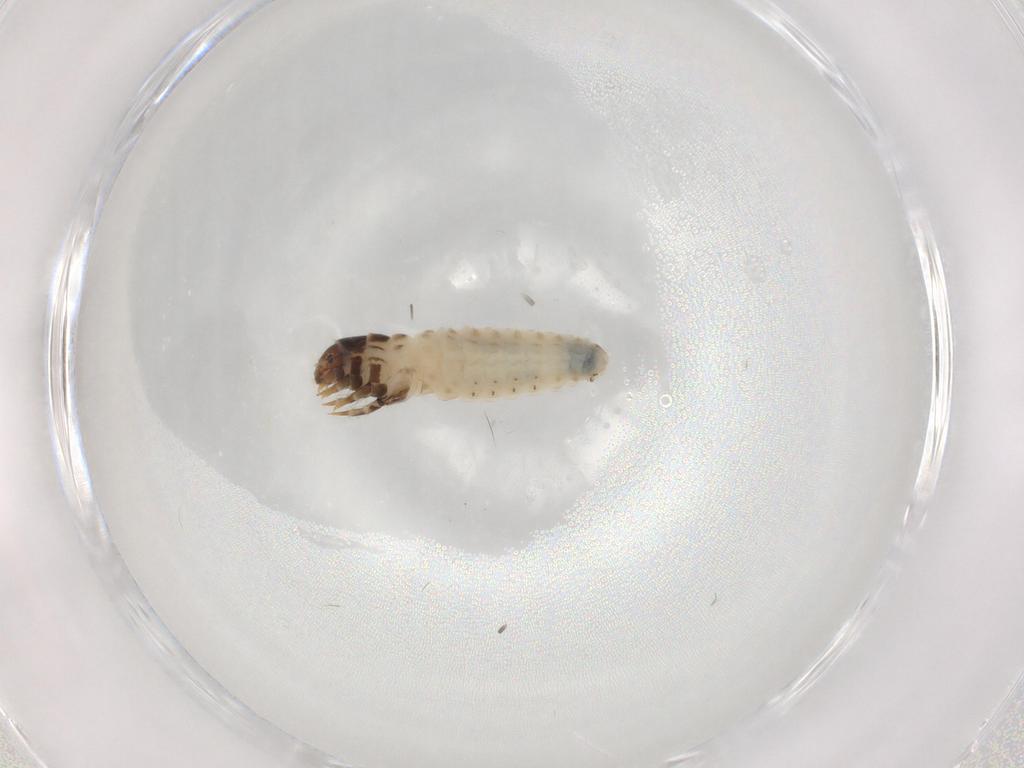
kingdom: Animalia
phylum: Arthropoda
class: Insecta
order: Lepidoptera
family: Psychidae
